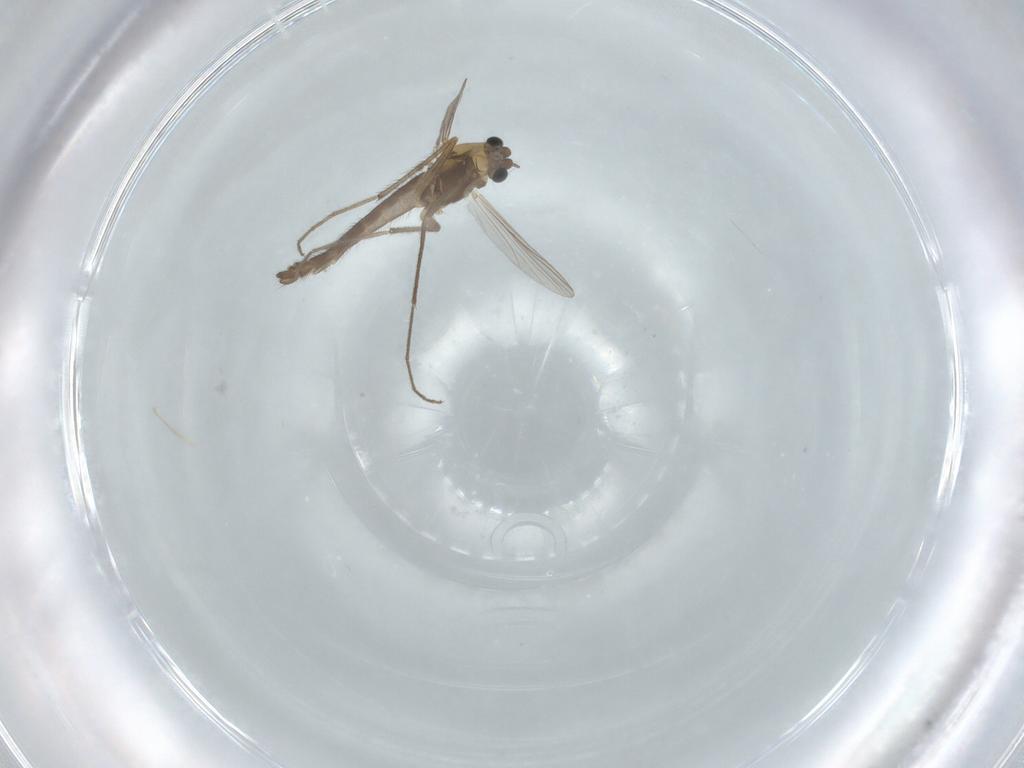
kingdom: Animalia
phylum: Arthropoda
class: Insecta
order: Diptera
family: Chironomidae
